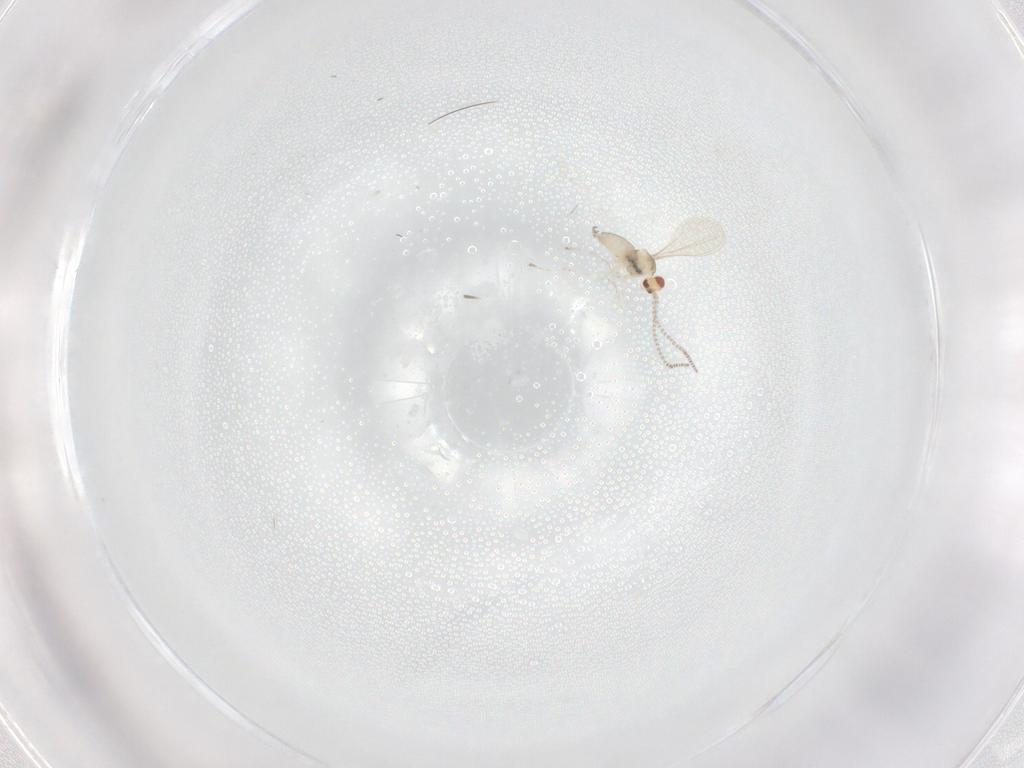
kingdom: Animalia
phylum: Arthropoda
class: Insecta
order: Diptera
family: Cecidomyiidae
